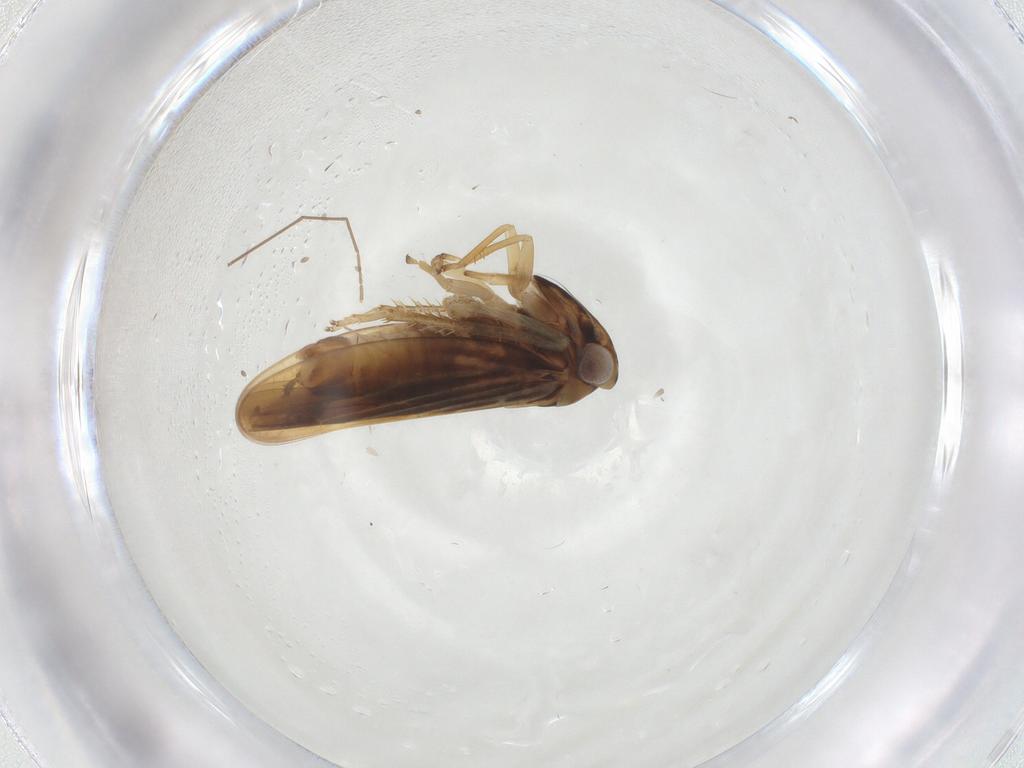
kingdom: Animalia
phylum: Arthropoda
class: Insecta
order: Hemiptera
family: Cicadellidae
